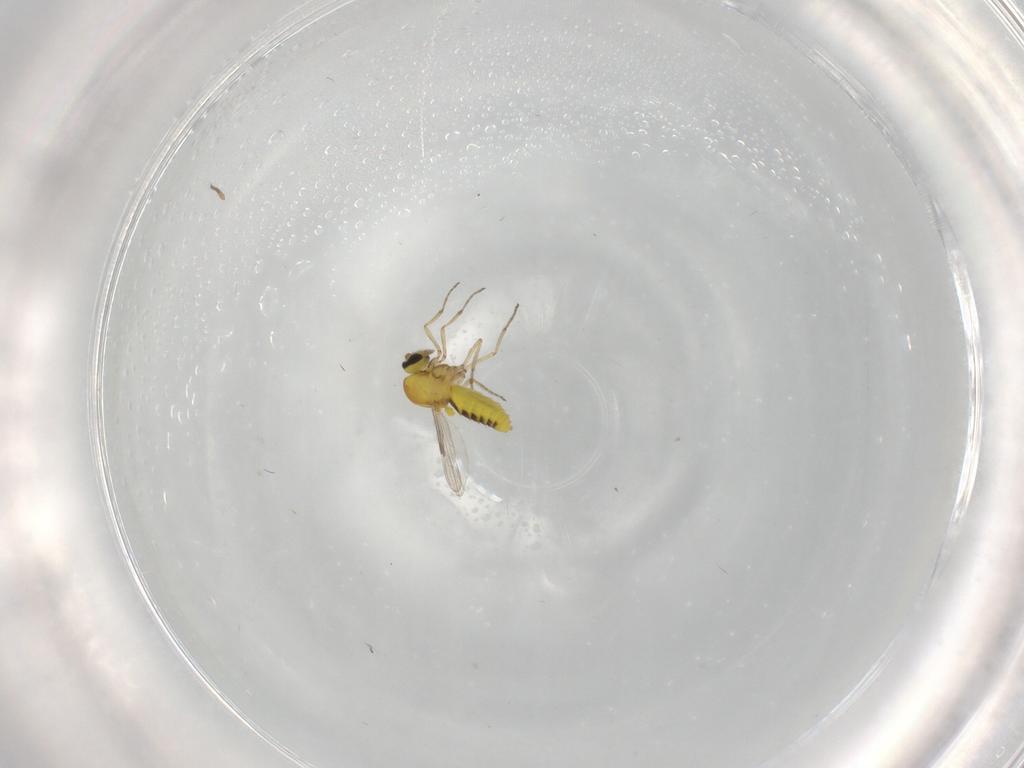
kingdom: Animalia
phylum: Arthropoda
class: Insecta
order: Diptera
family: Ceratopogonidae
